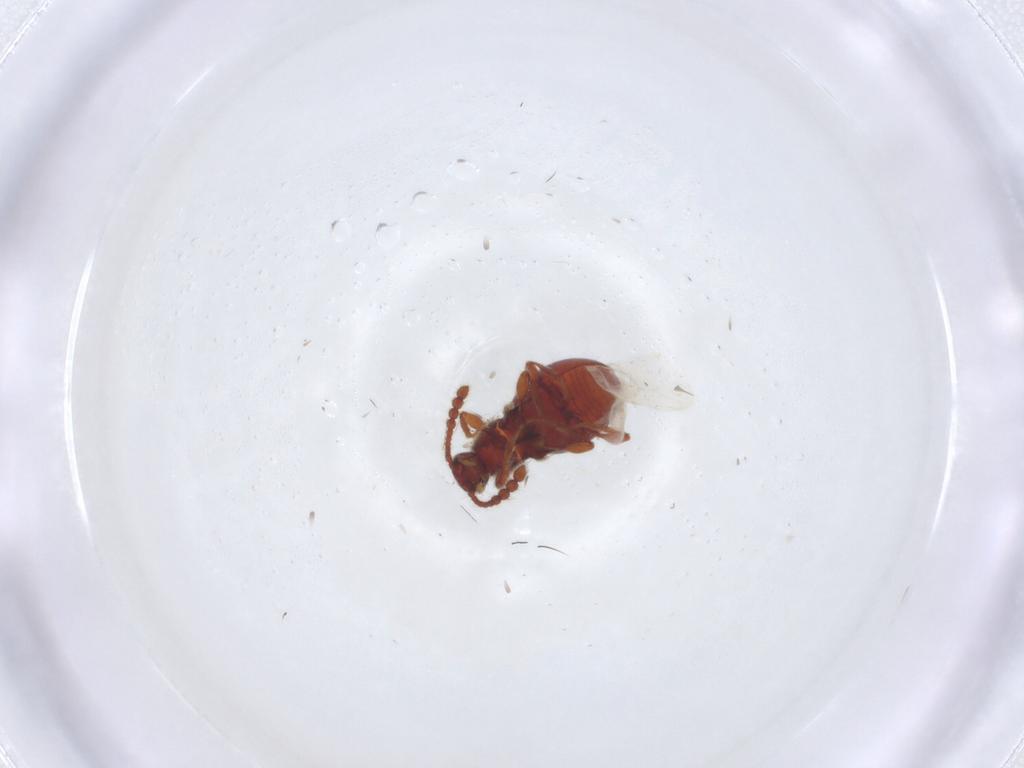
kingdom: Animalia
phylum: Arthropoda
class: Insecta
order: Coleoptera
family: Staphylinidae
